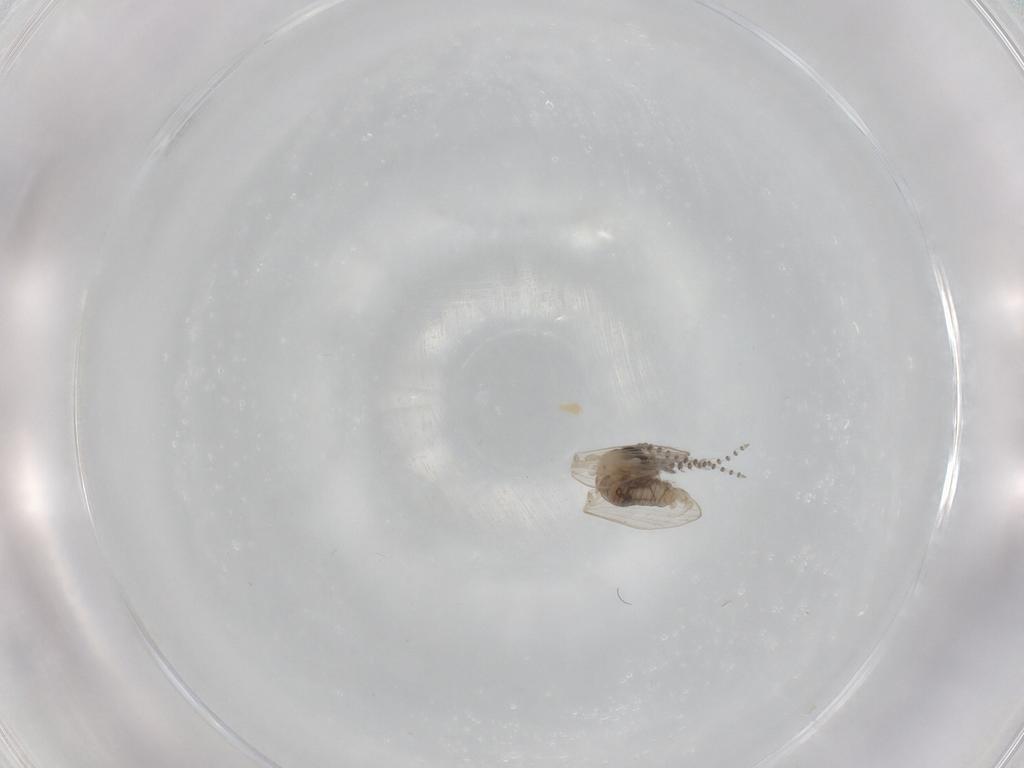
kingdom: Animalia
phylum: Arthropoda
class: Insecta
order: Diptera
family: Psychodidae
